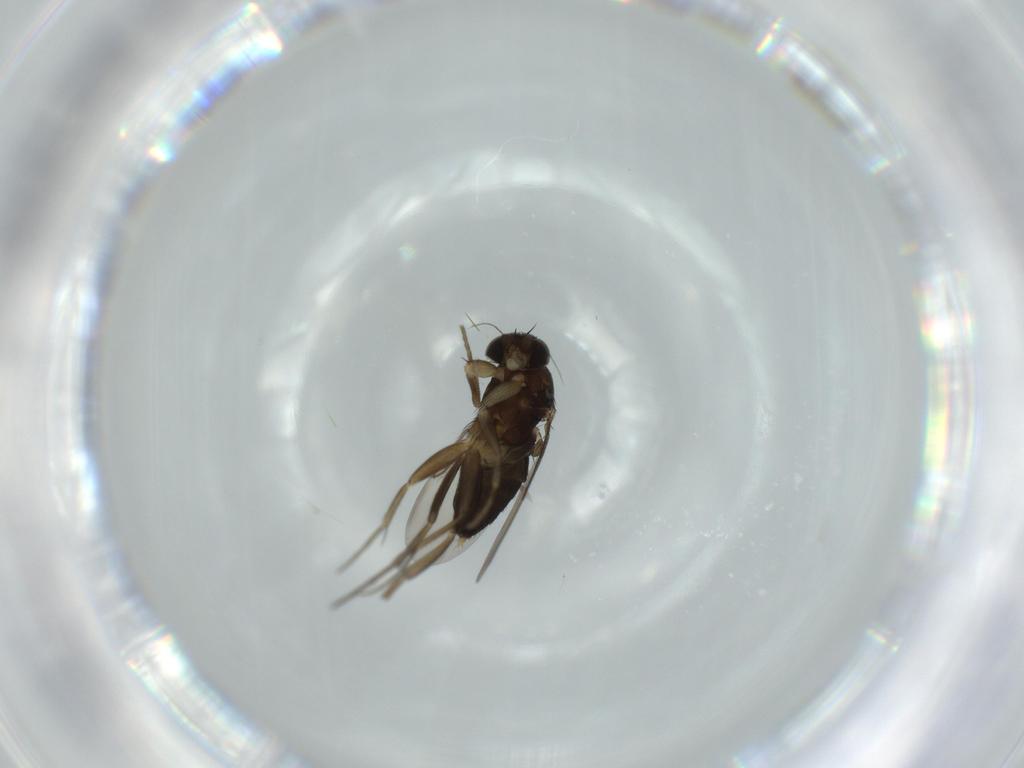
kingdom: Animalia
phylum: Arthropoda
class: Insecta
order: Diptera
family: Phoridae
